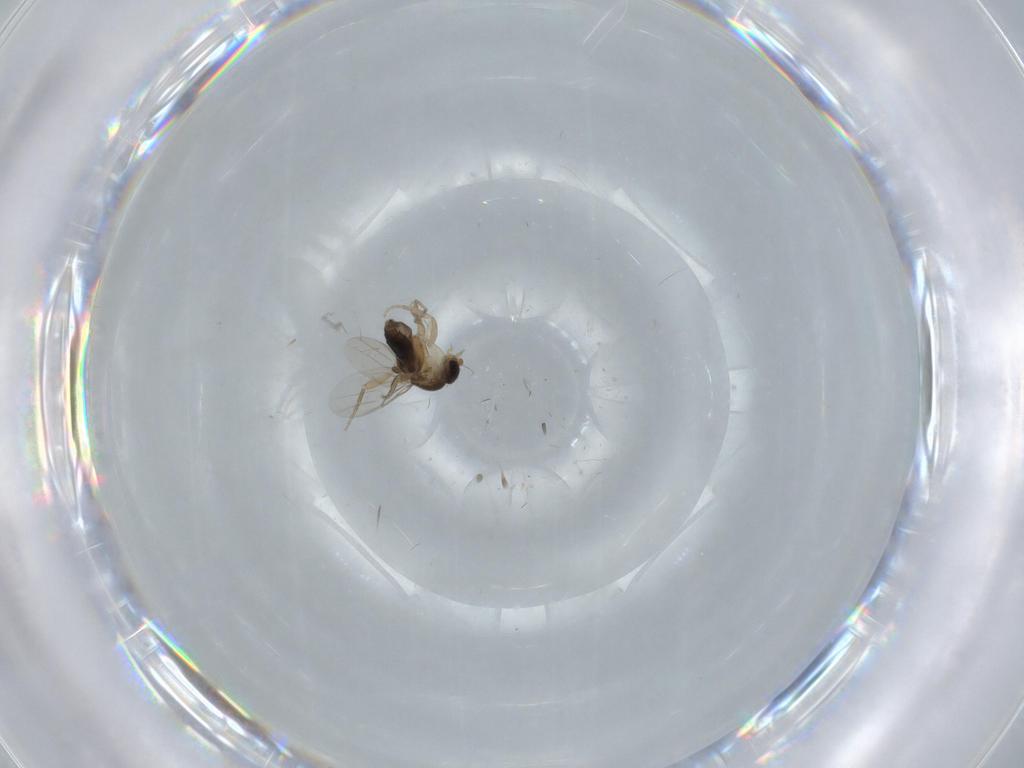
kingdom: Animalia
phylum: Arthropoda
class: Insecta
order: Diptera
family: Phoridae
